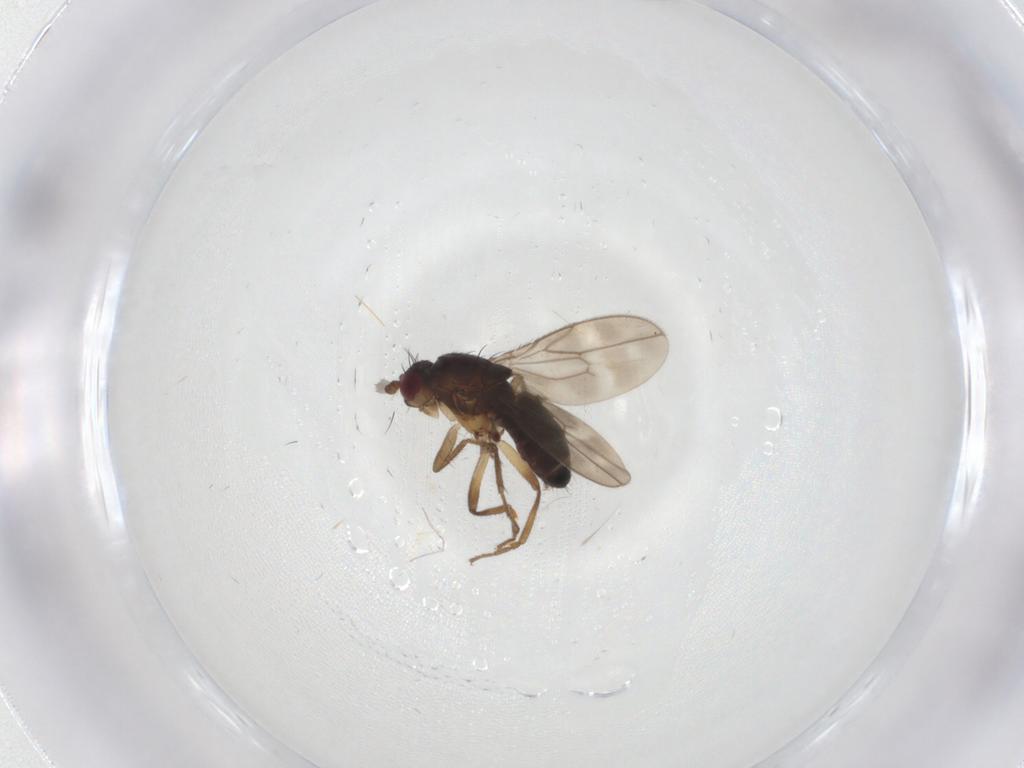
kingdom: Animalia
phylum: Arthropoda
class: Insecta
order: Diptera
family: Sphaeroceridae
